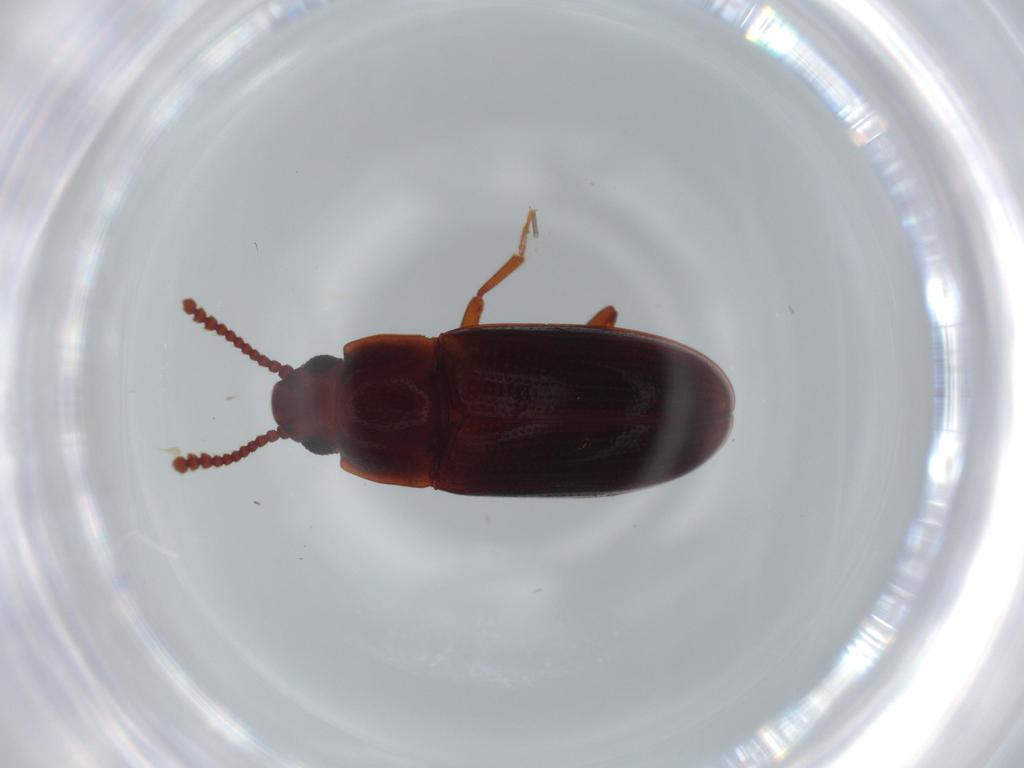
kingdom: Animalia
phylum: Arthropoda
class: Insecta
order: Coleoptera
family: Erotylidae
